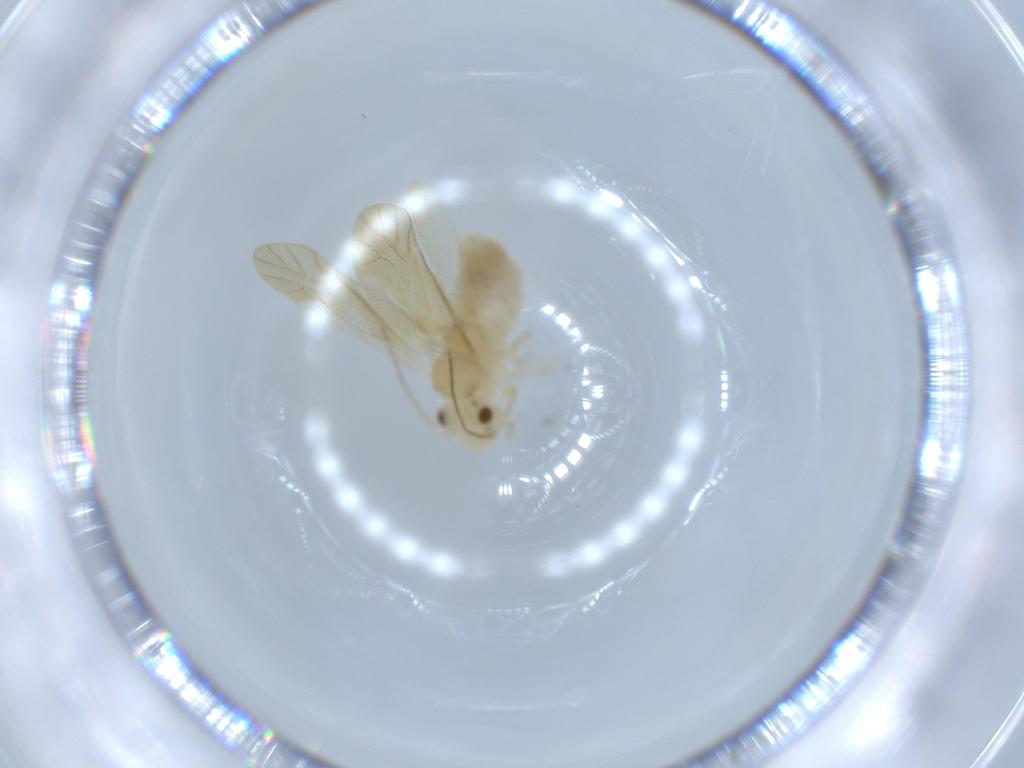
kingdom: Animalia
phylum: Arthropoda
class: Insecta
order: Psocodea
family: Caeciliusidae
